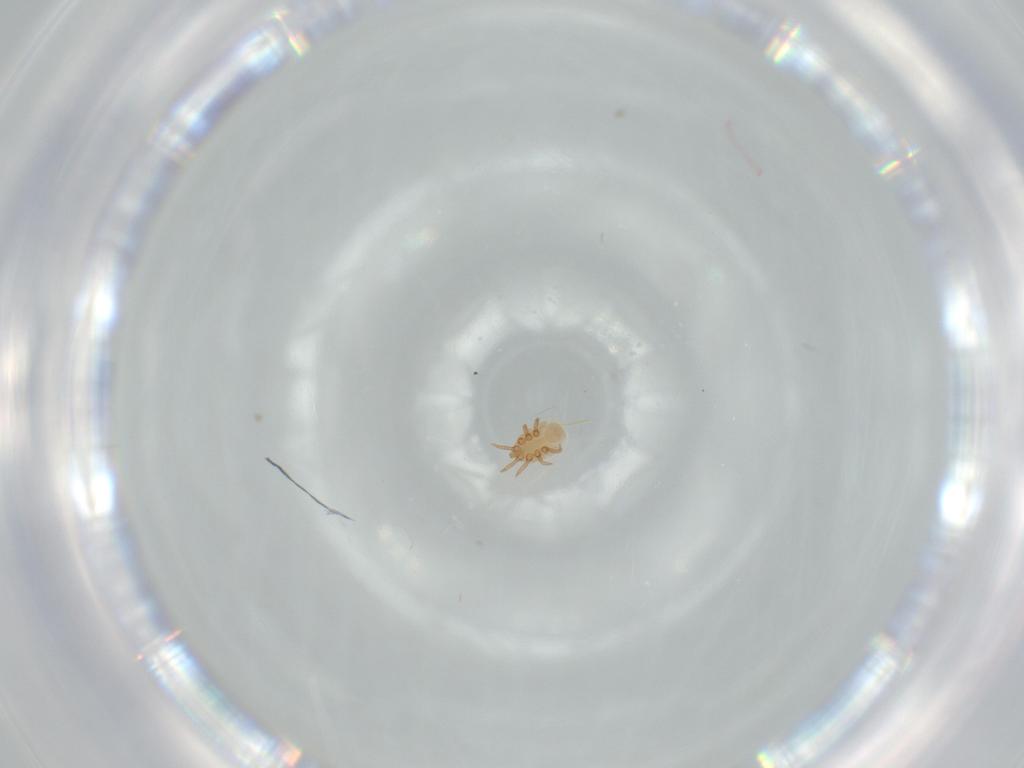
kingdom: Animalia
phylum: Arthropoda
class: Arachnida
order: Mesostigmata
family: Dinychidae
